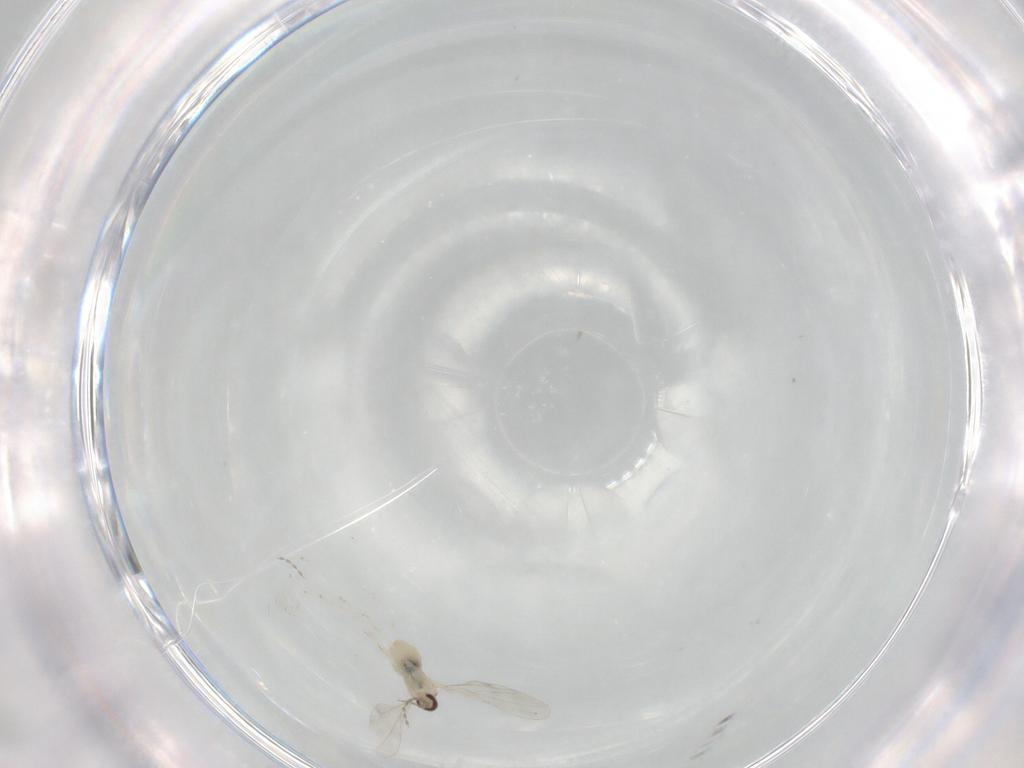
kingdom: Animalia
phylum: Arthropoda
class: Insecta
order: Diptera
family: Cecidomyiidae
